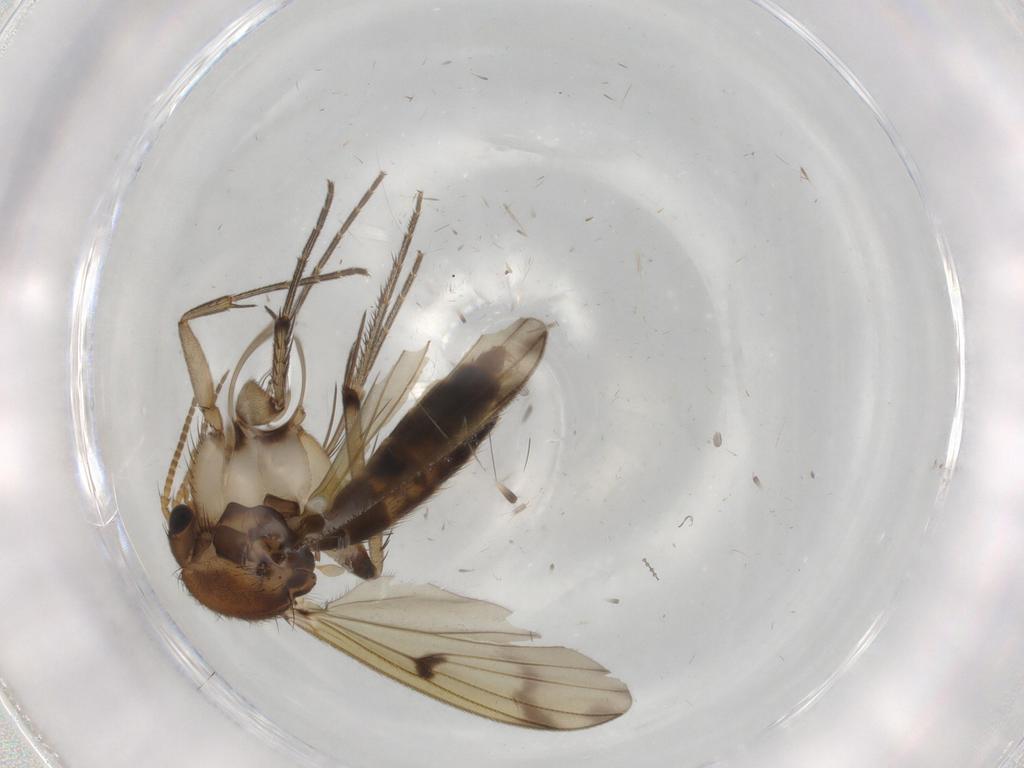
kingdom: Animalia
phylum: Arthropoda
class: Insecta
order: Diptera
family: Mycetophilidae
